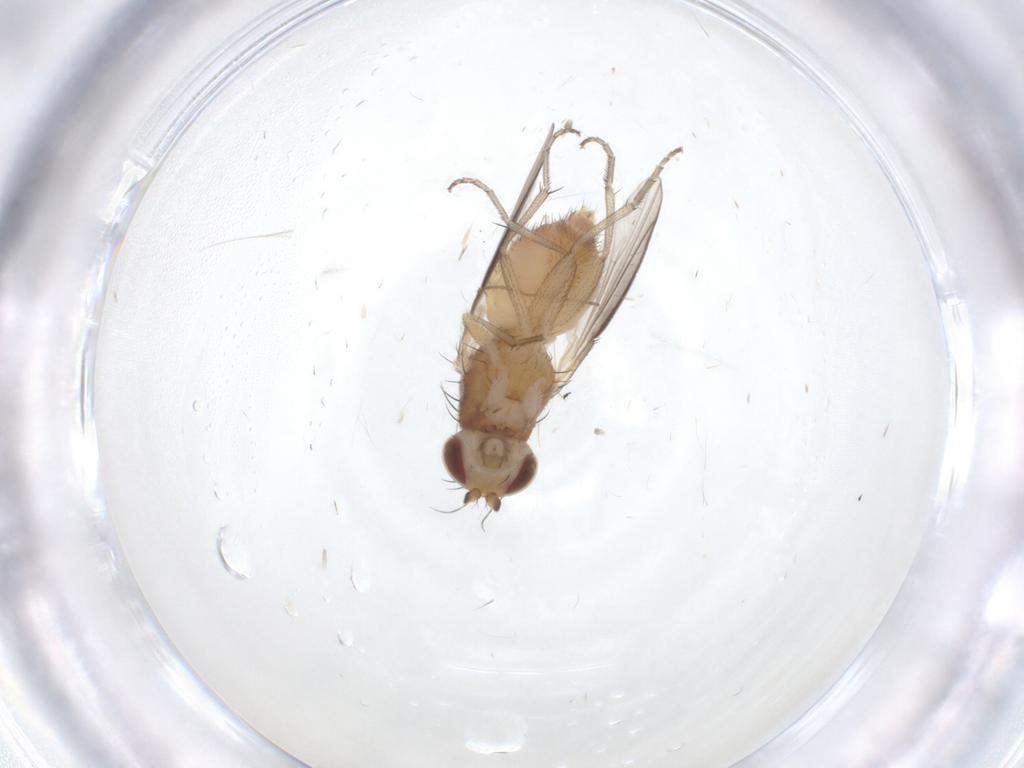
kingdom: Animalia
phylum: Arthropoda
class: Insecta
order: Diptera
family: Heleomyzidae
